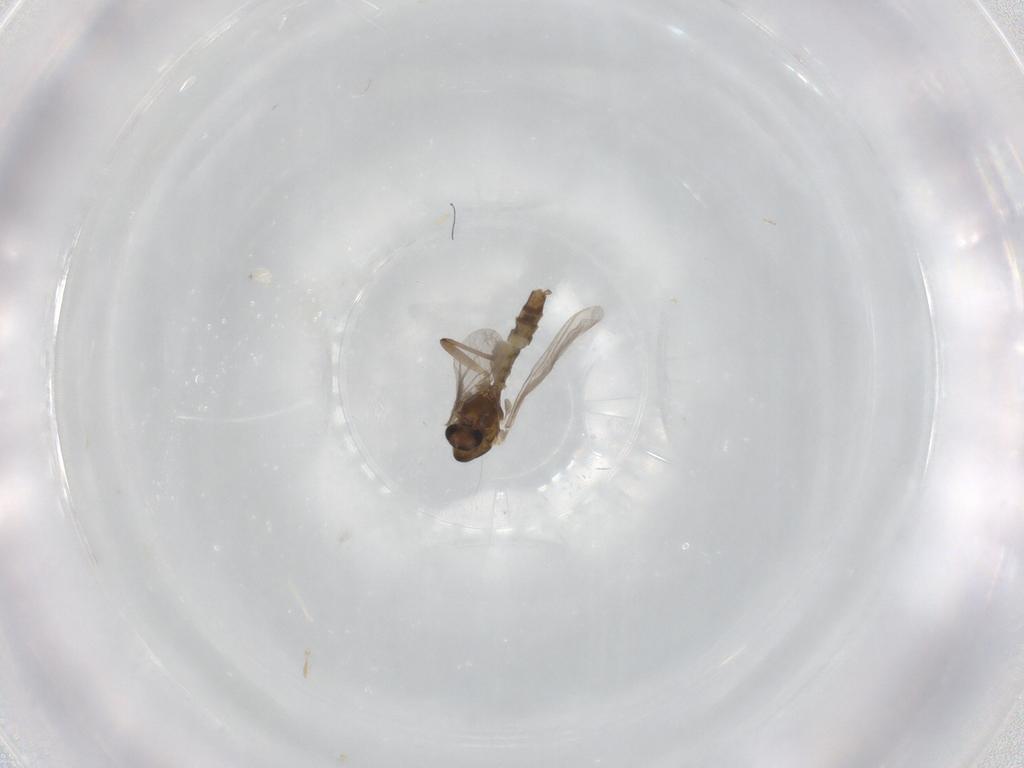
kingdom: Animalia
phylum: Arthropoda
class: Insecta
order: Diptera
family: Chironomidae
